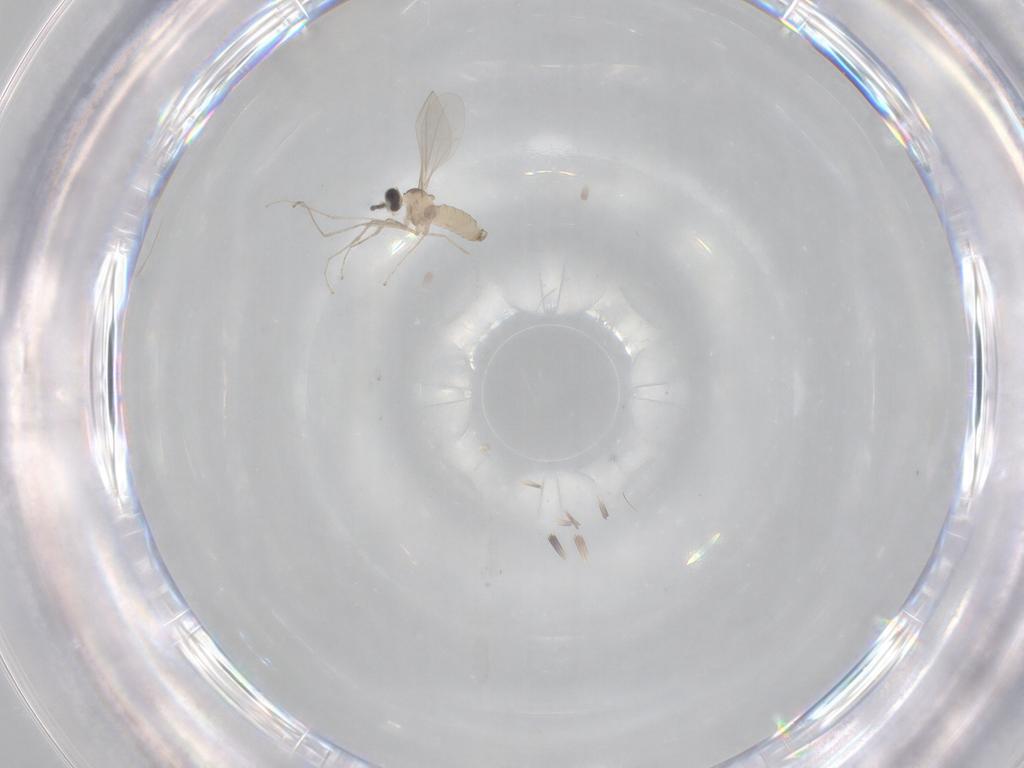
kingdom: Animalia
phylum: Arthropoda
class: Insecta
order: Diptera
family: Cecidomyiidae
